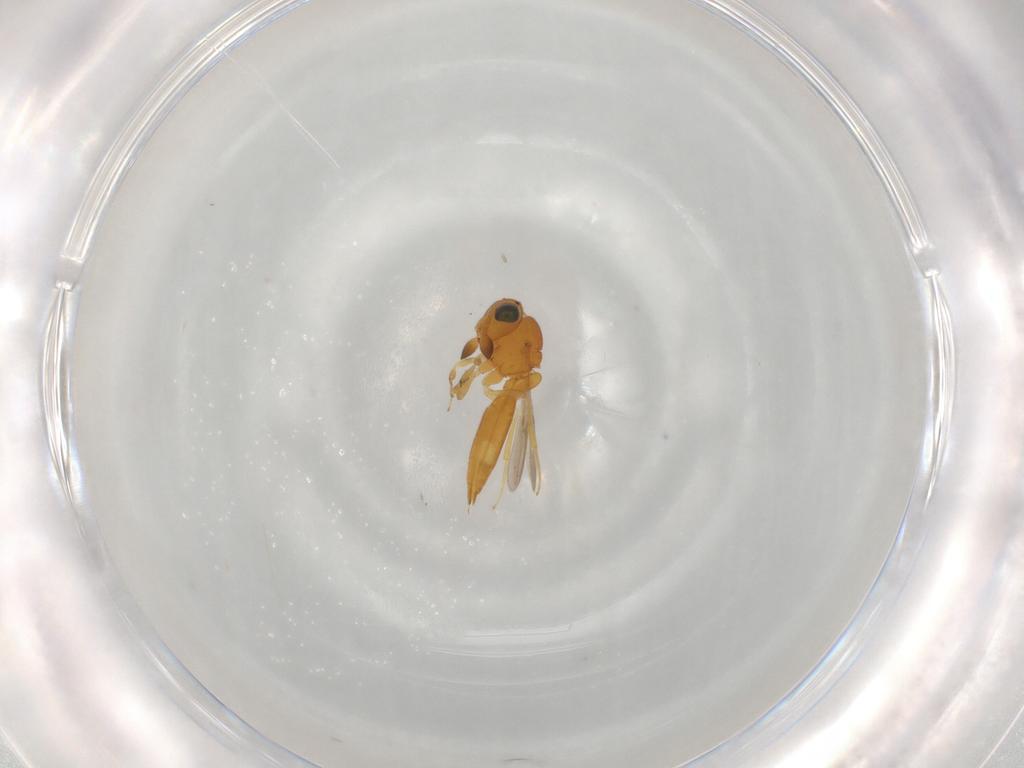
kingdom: Animalia
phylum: Arthropoda
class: Insecta
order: Hymenoptera
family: Scelionidae
